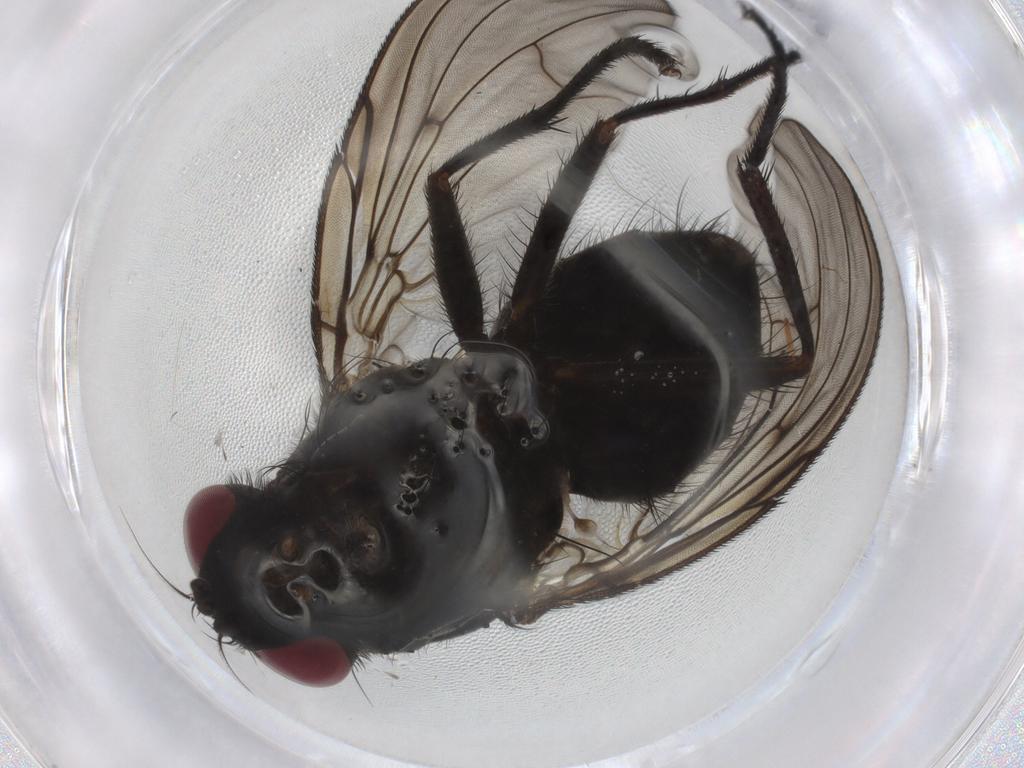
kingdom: Animalia
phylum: Arthropoda
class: Insecta
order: Diptera
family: Muscidae
